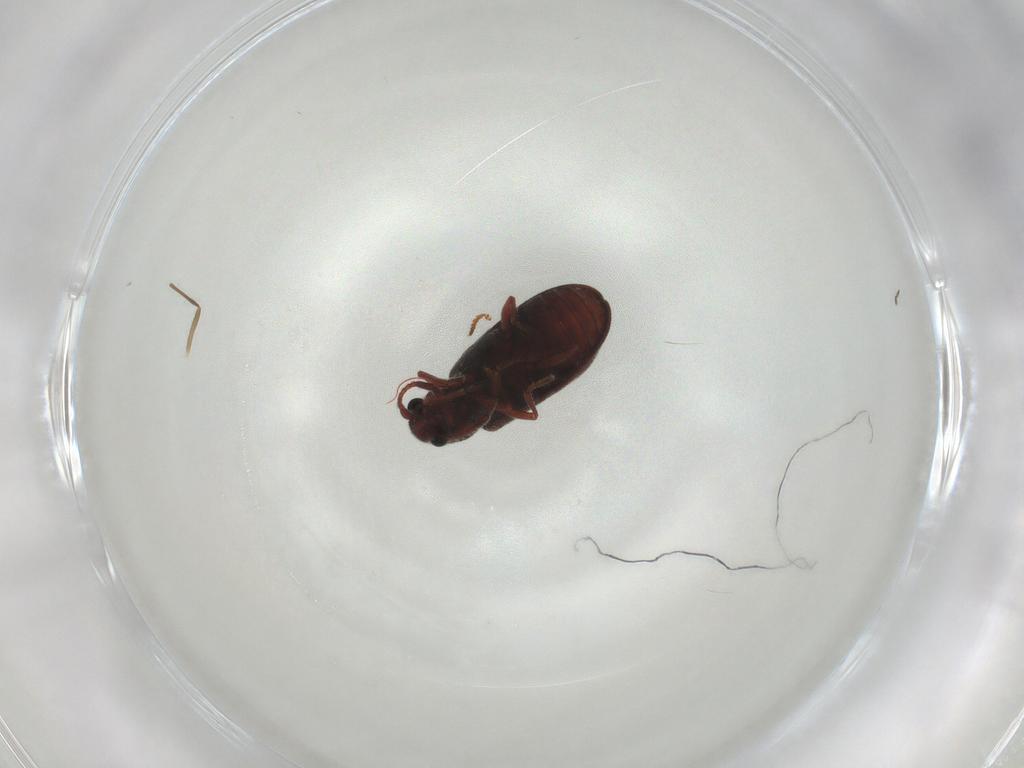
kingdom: Animalia
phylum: Arthropoda
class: Insecta
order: Coleoptera
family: Ptinidae
